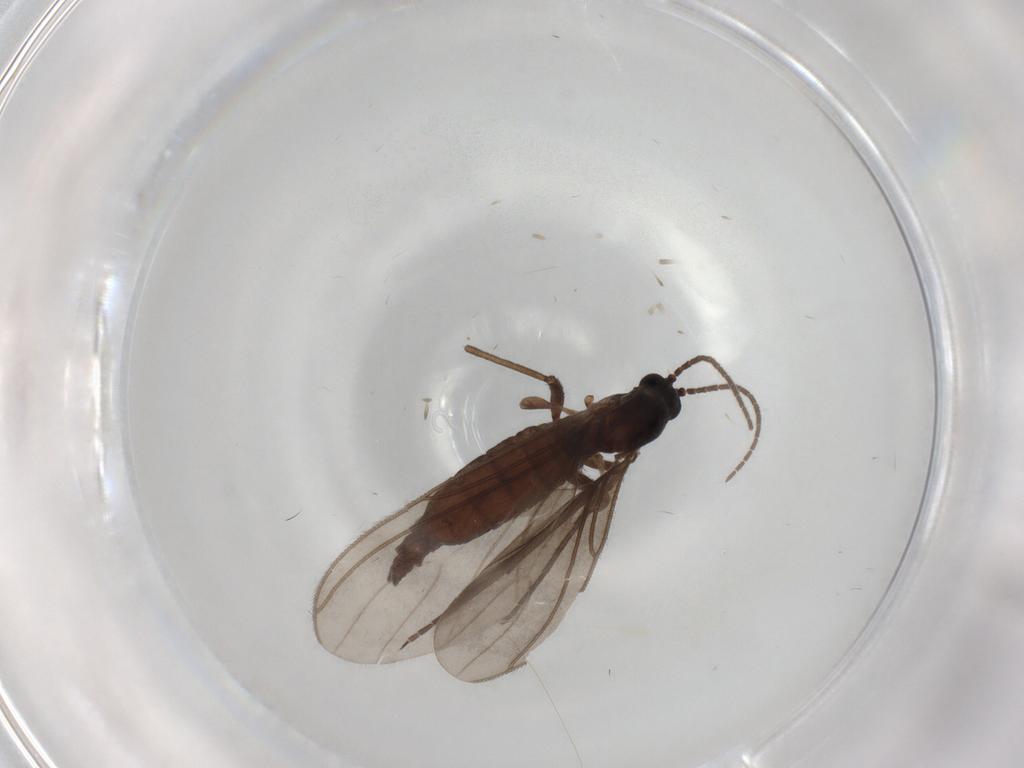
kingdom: Animalia
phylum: Arthropoda
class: Insecta
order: Diptera
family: Sciaridae
